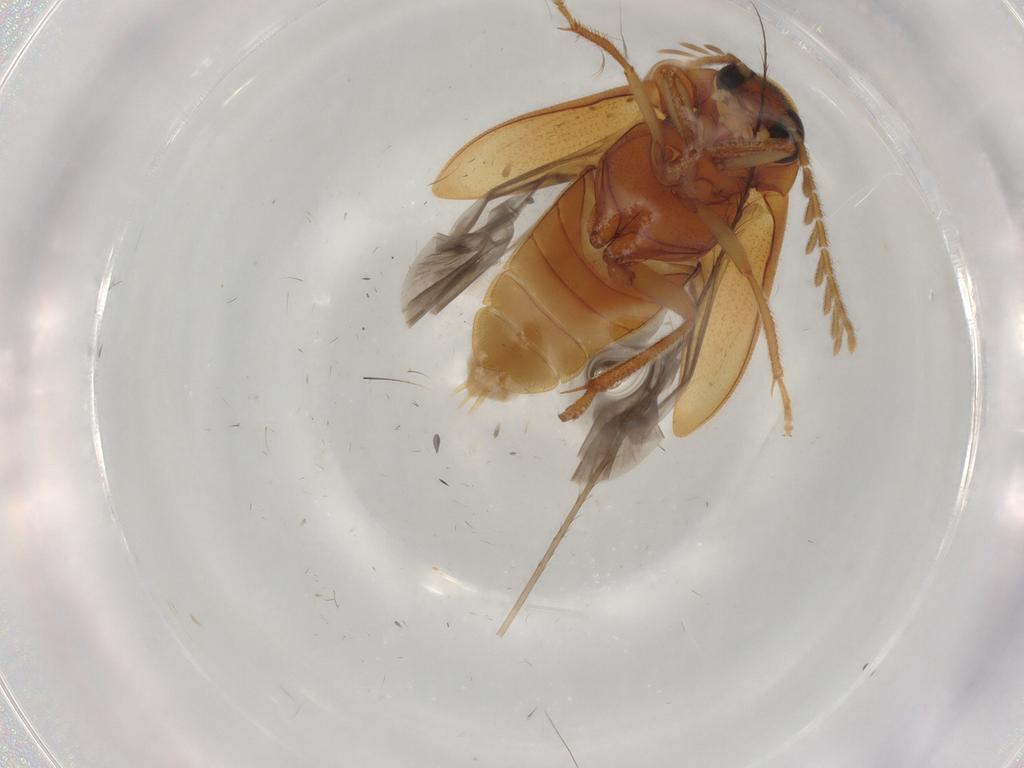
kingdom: Animalia
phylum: Arthropoda
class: Insecta
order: Coleoptera
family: Ptilodactylidae
